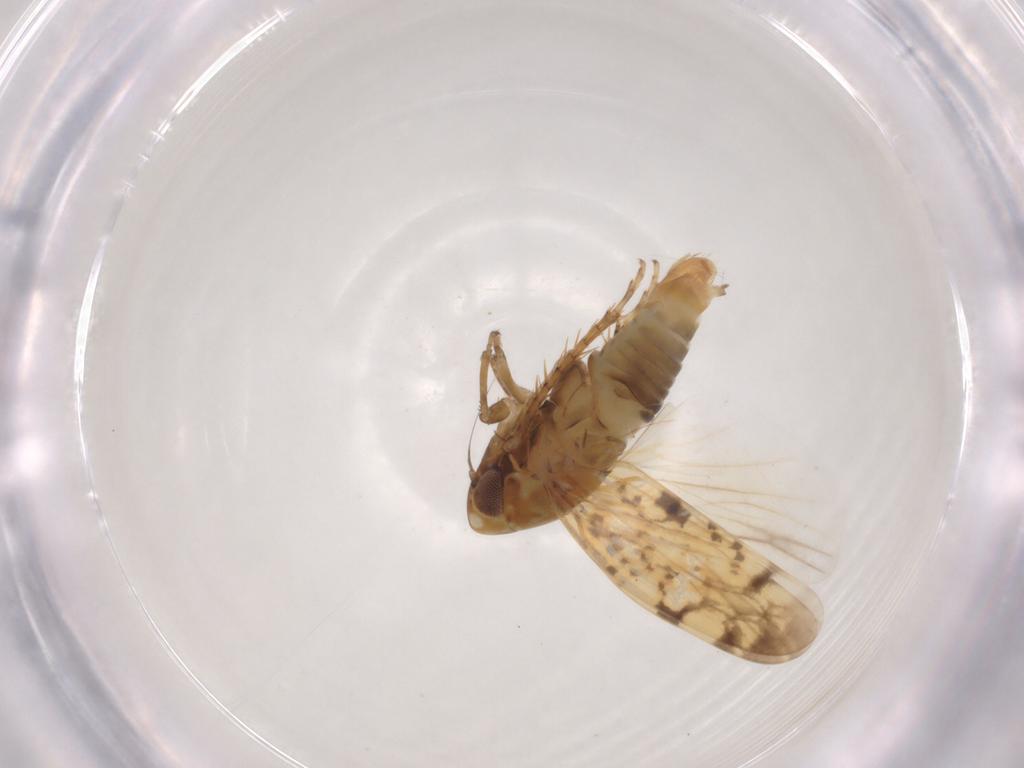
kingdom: Animalia
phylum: Arthropoda
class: Insecta
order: Hemiptera
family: Cicadellidae
